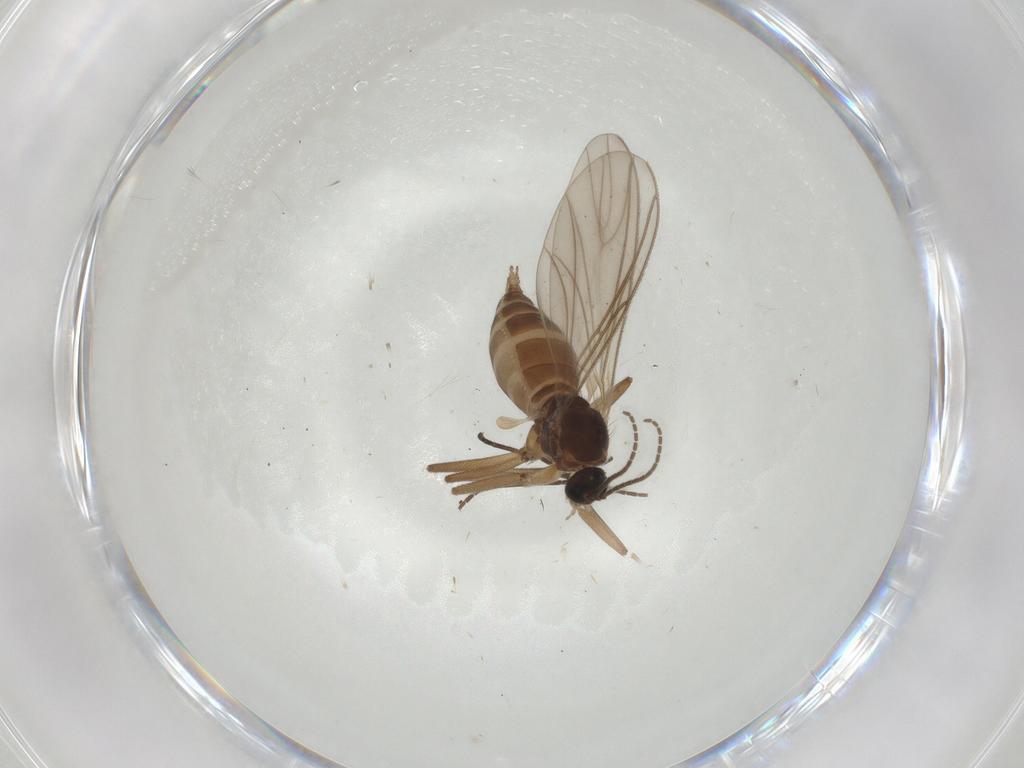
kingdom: Animalia
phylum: Arthropoda
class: Insecta
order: Diptera
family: Sciaridae
